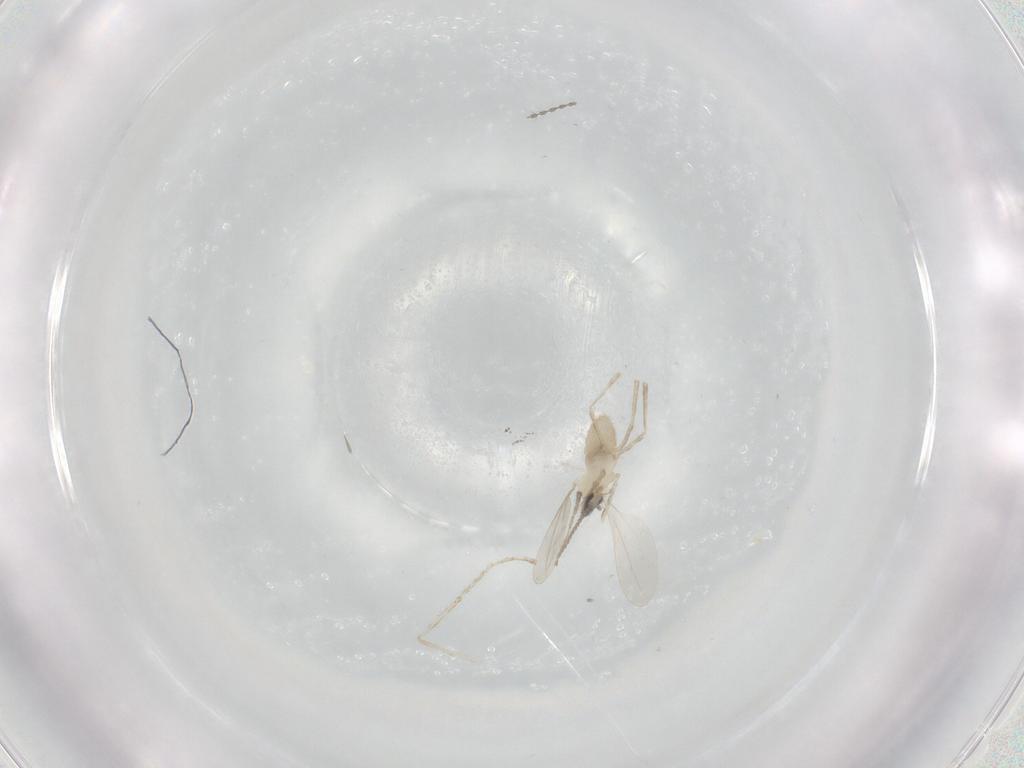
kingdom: Animalia
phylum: Arthropoda
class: Insecta
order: Diptera
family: Cecidomyiidae
